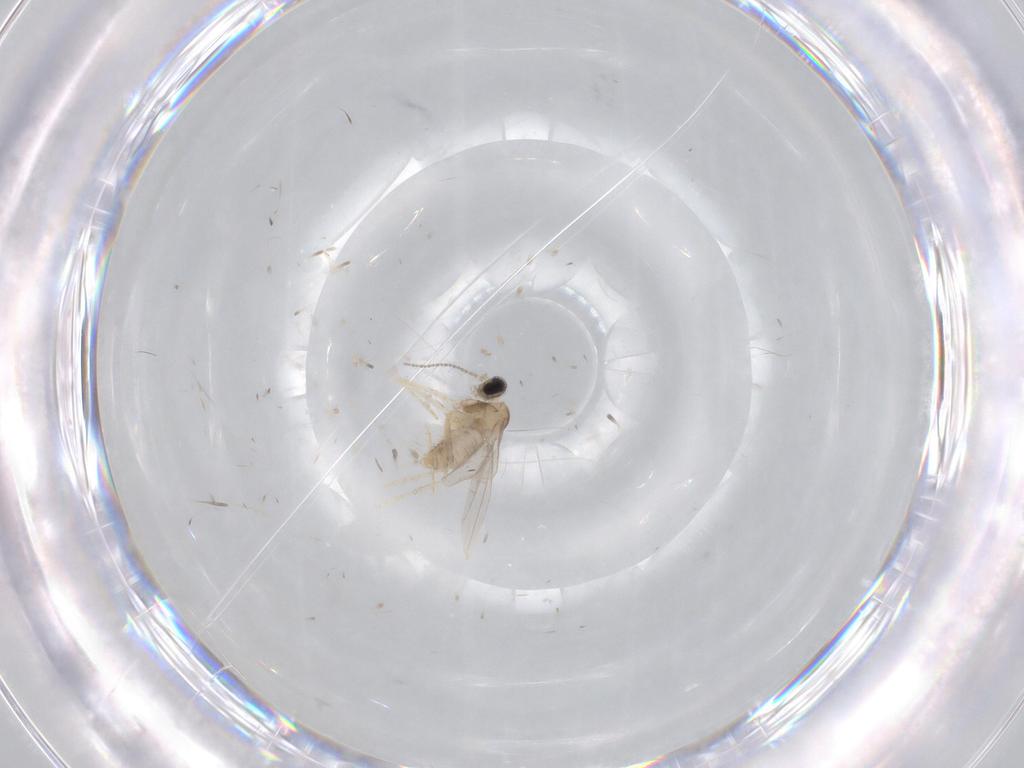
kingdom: Animalia
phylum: Arthropoda
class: Insecta
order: Diptera
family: Cecidomyiidae
